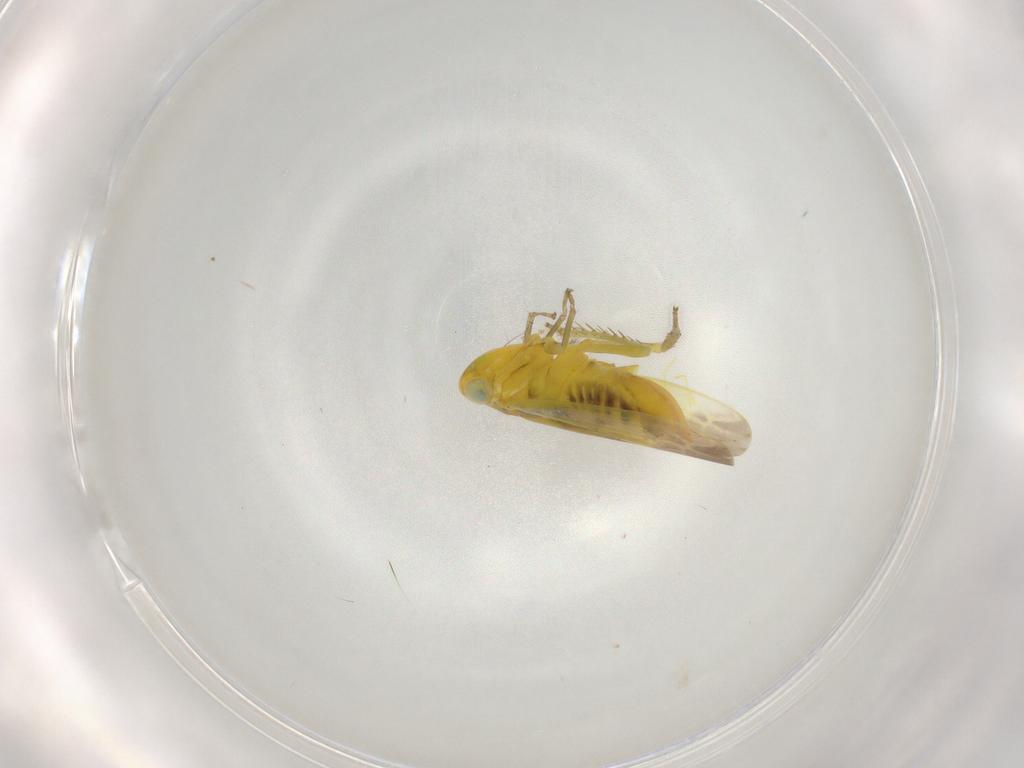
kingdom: Animalia
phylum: Arthropoda
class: Insecta
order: Hemiptera
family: Cicadellidae
